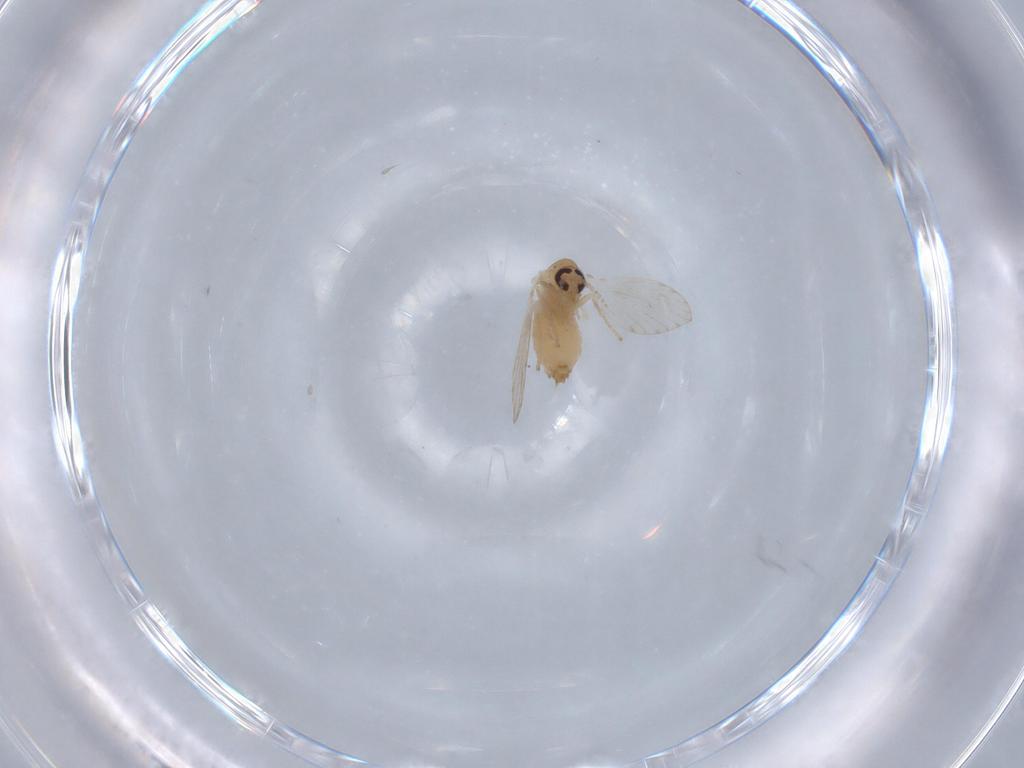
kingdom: Animalia
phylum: Arthropoda
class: Insecta
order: Diptera
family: Psychodidae
